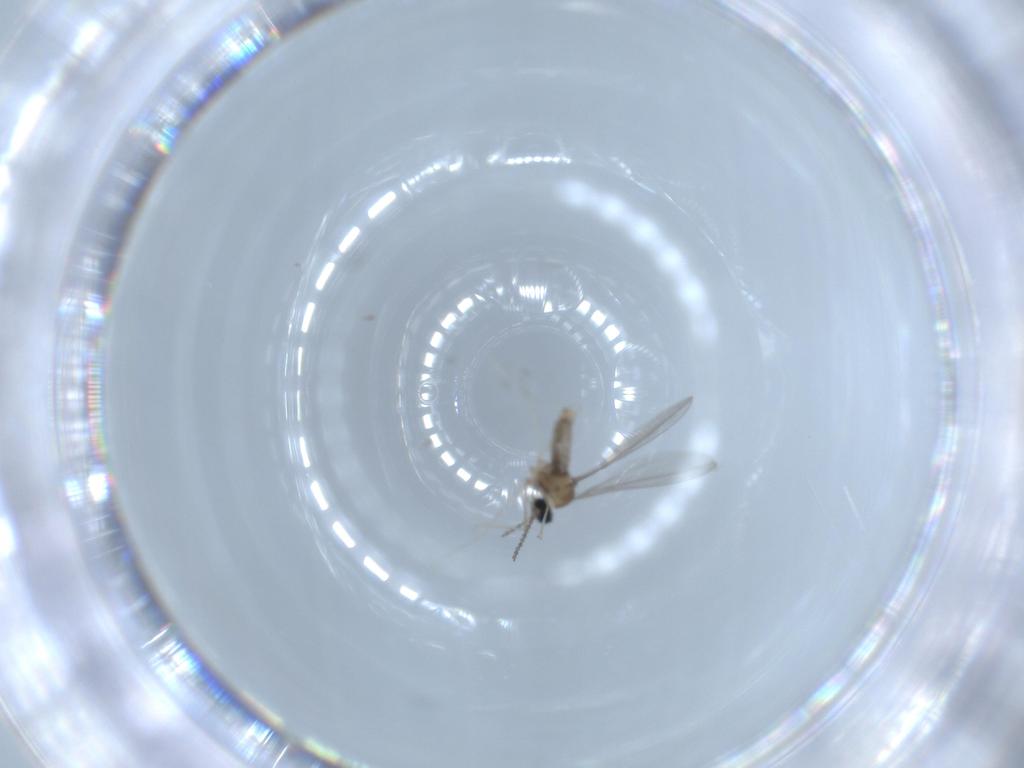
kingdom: Animalia
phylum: Arthropoda
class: Insecta
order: Diptera
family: Cecidomyiidae
